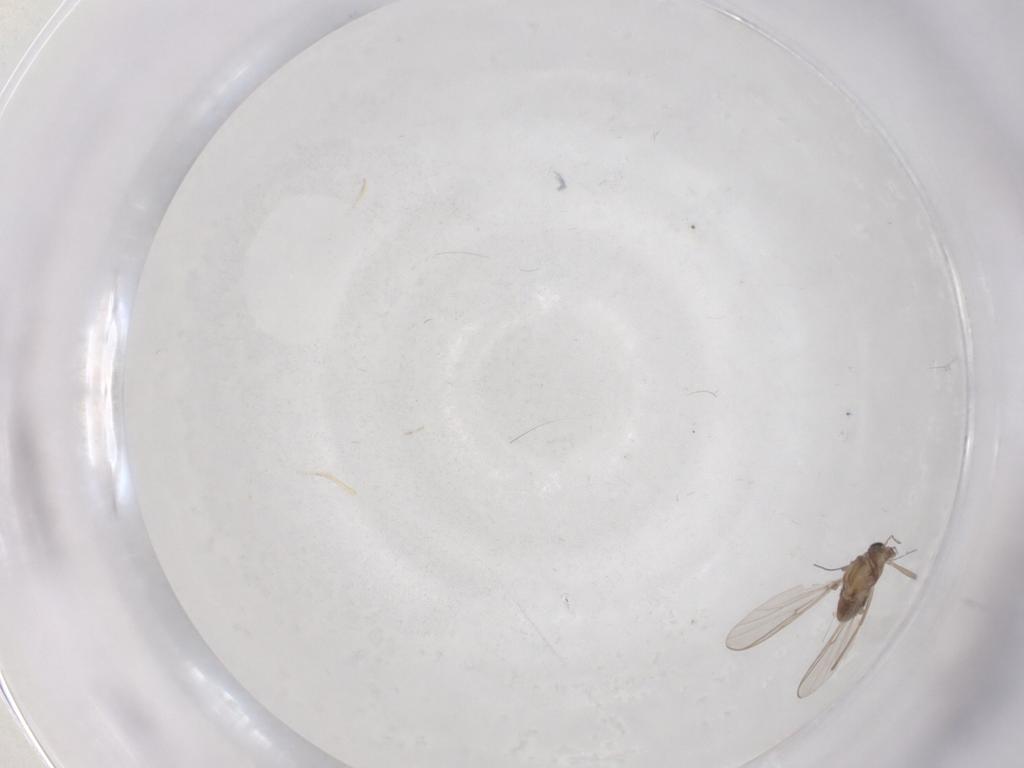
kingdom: Animalia
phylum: Arthropoda
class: Insecta
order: Diptera
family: Chironomidae
